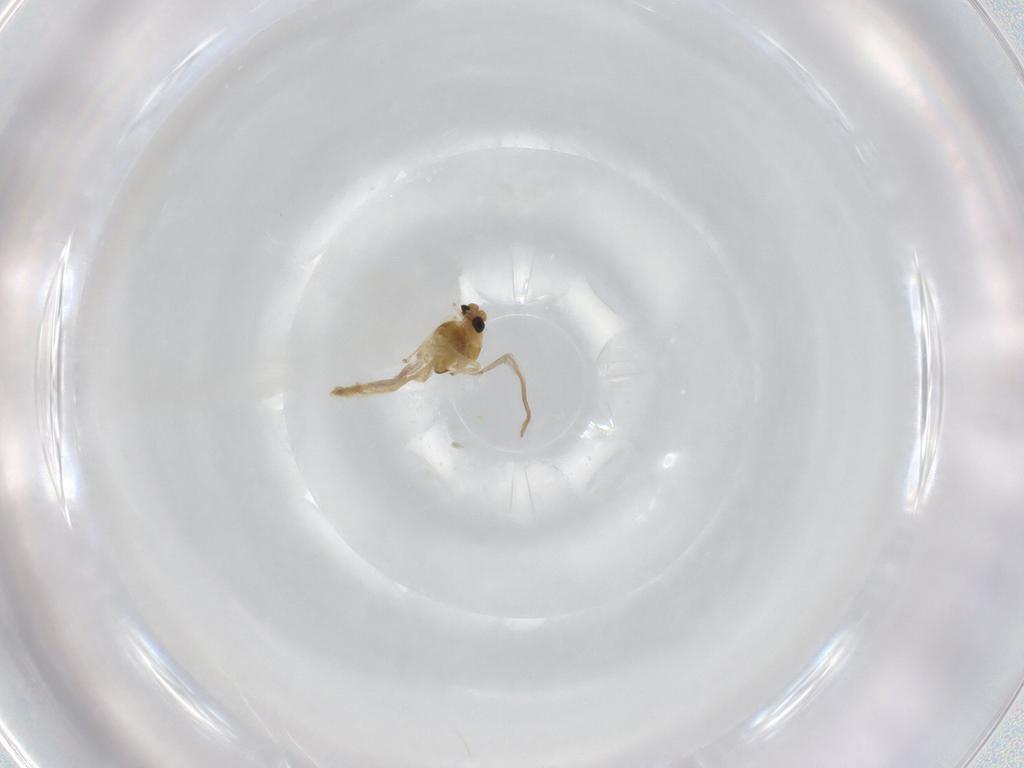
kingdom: Animalia
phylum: Arthropoda
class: Insecta
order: Diptera
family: Chironomidae
